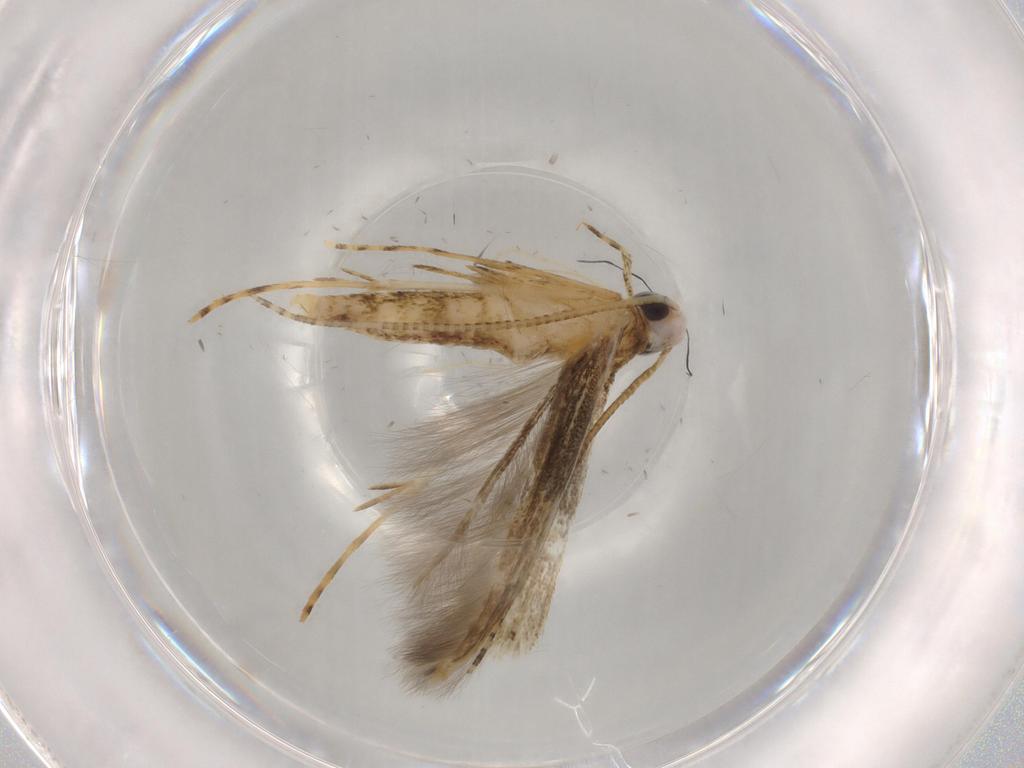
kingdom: Animalia
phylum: Arthropoda
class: Insecta
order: Lepidoptera
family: Batrachedridae
